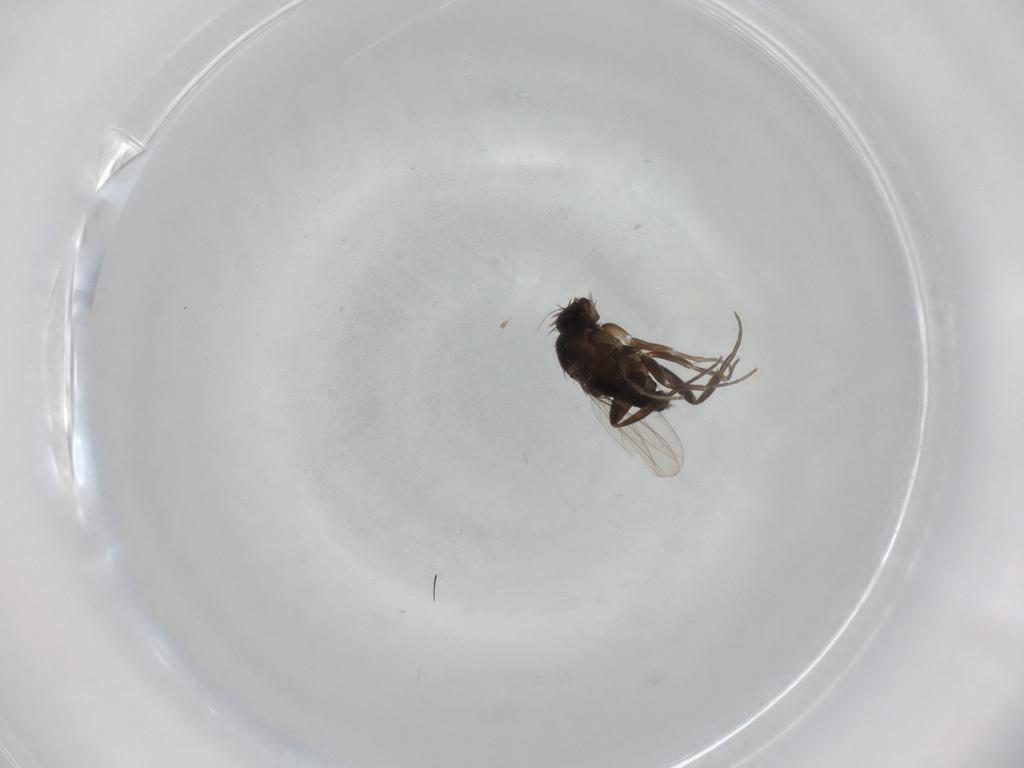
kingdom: Animalia
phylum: Arthropoda
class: Insecta
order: Diptera
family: Phoridae
